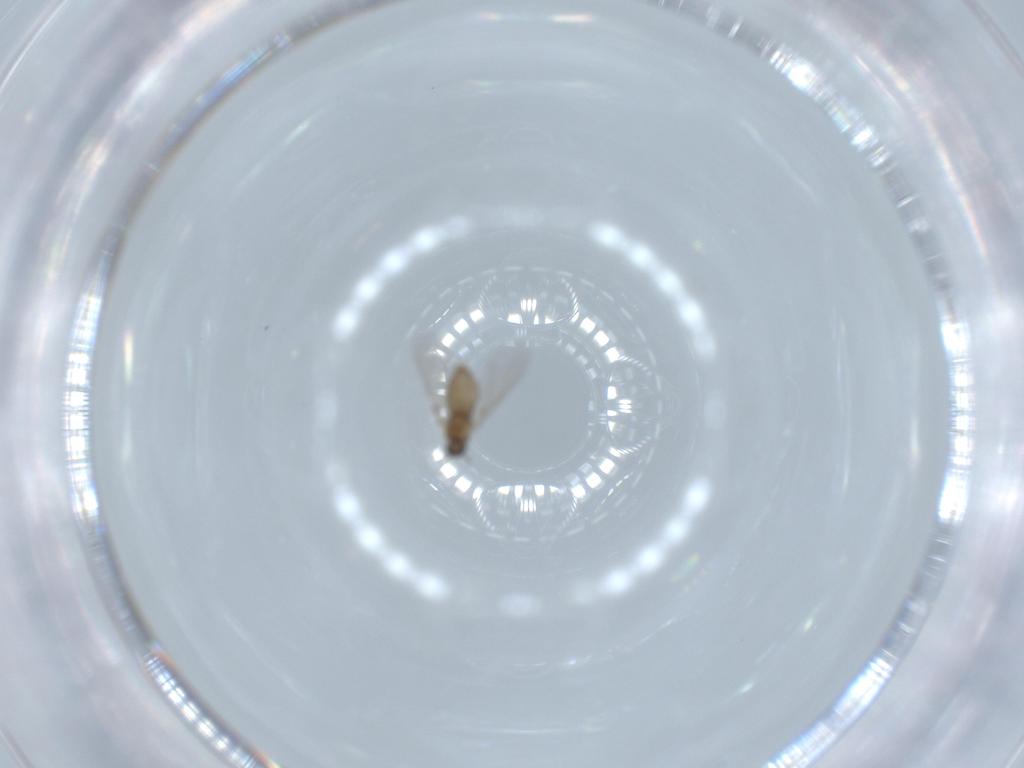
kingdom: Animalia
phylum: Arthropoda
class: Insecta
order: Diptera
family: Cecidomyiidae
